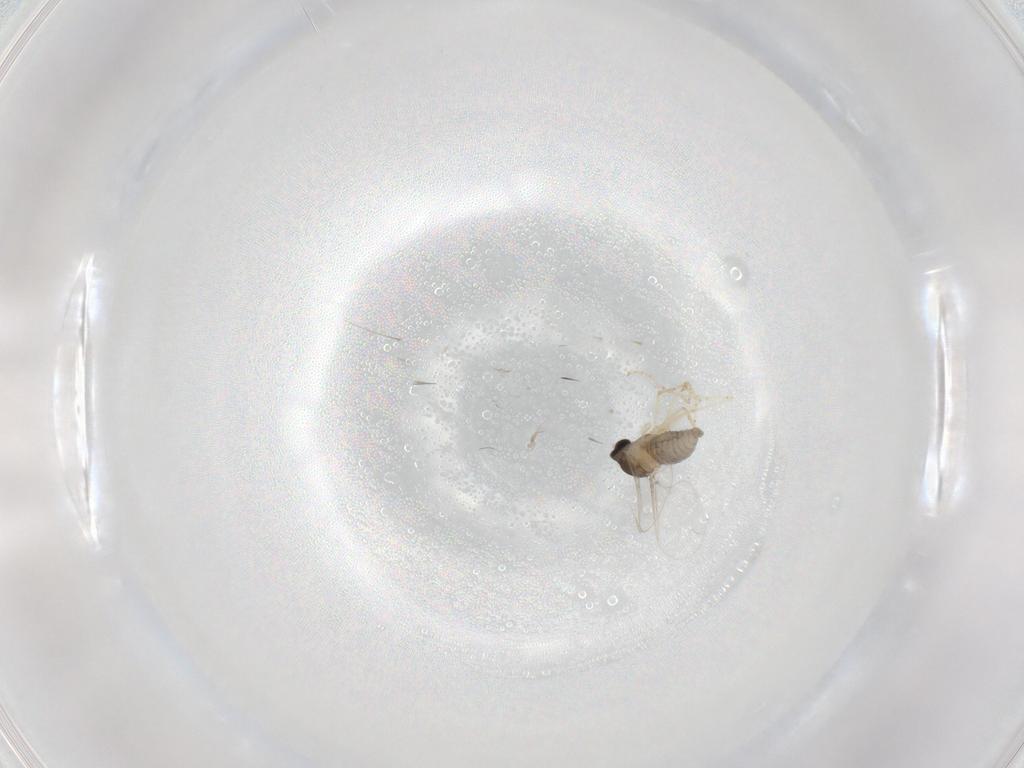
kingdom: Animalia
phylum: Arthropoda
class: Insecta
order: Diptera
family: Cecidomyiidae
